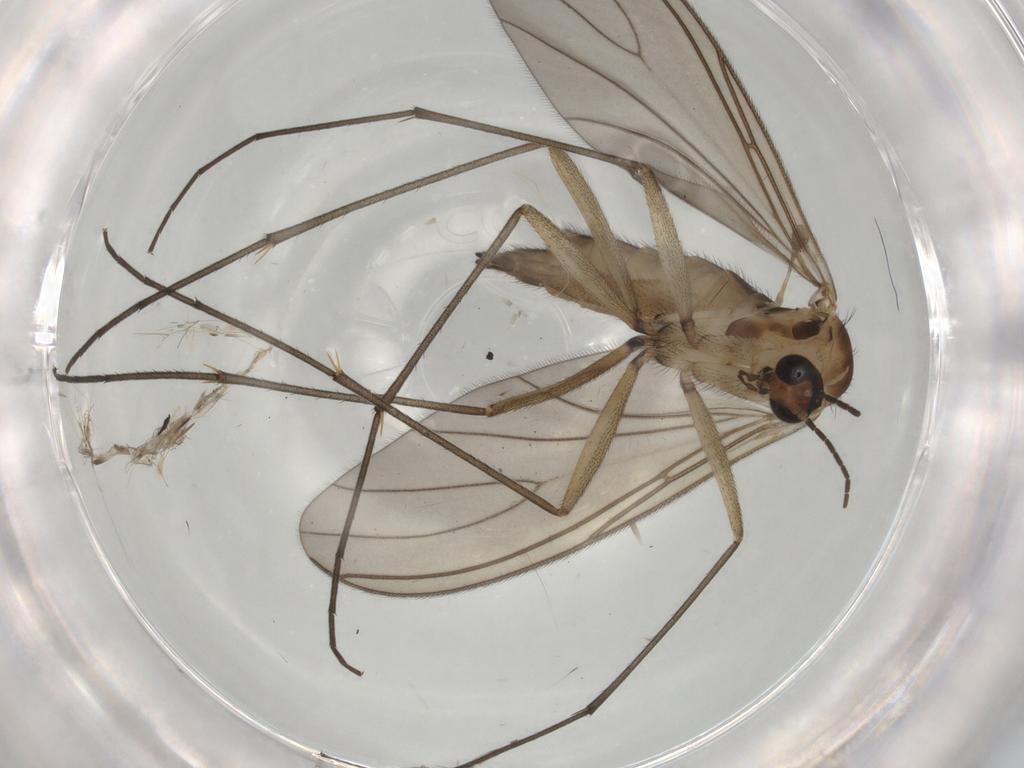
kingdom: Animalia
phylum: Arthropoda
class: Insecta
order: Diptera
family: Sciaridae
